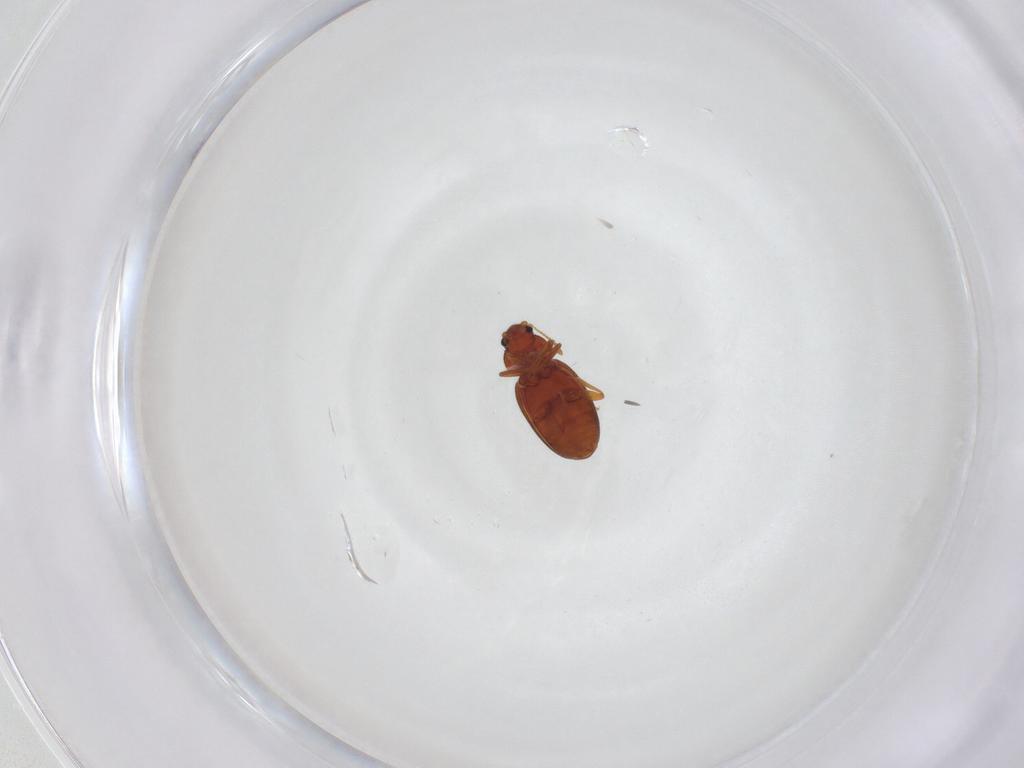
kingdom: Animalia
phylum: Arthropoda
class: Insecta
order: Coleoptera
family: Latridiidae
